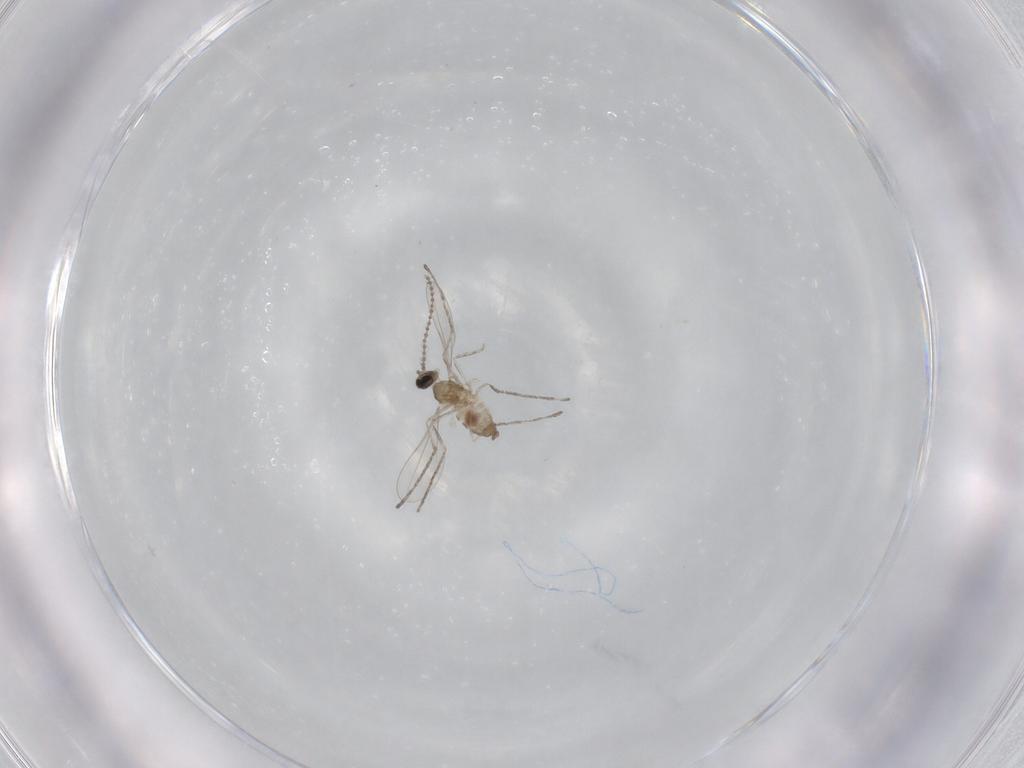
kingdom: Animalia
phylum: Arthropoda
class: Insecta
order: Diptera
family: Cecidomyiidae
